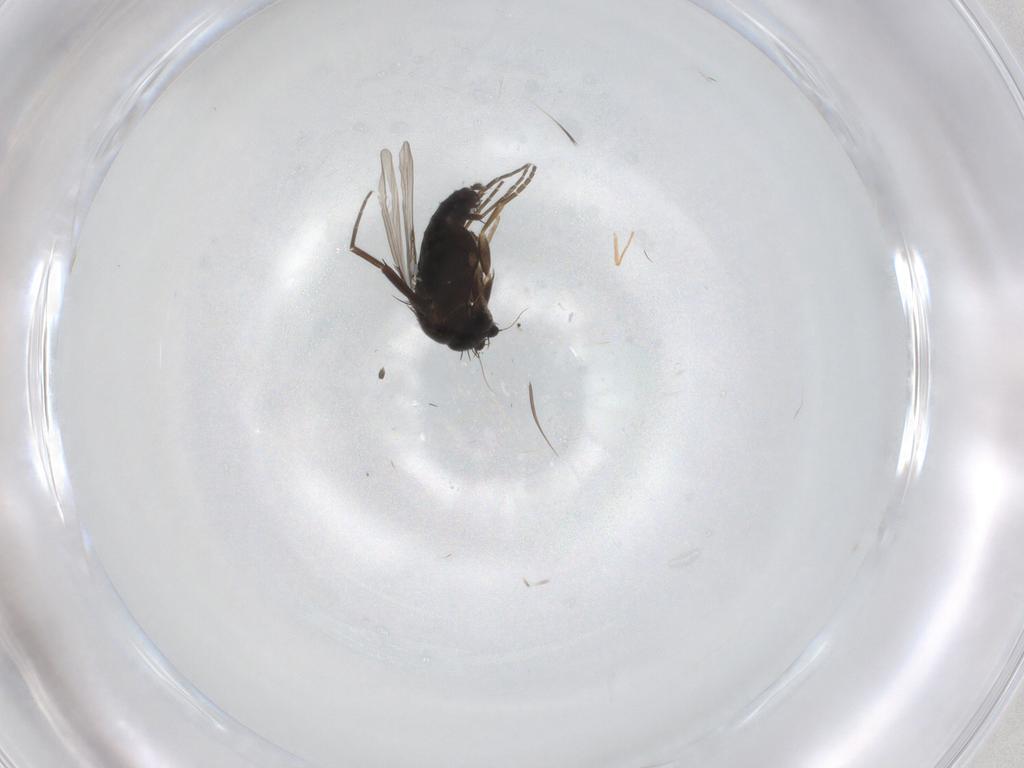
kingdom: Animalia
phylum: Arthropoda
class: Insecta
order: Diptera
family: Phoridae
